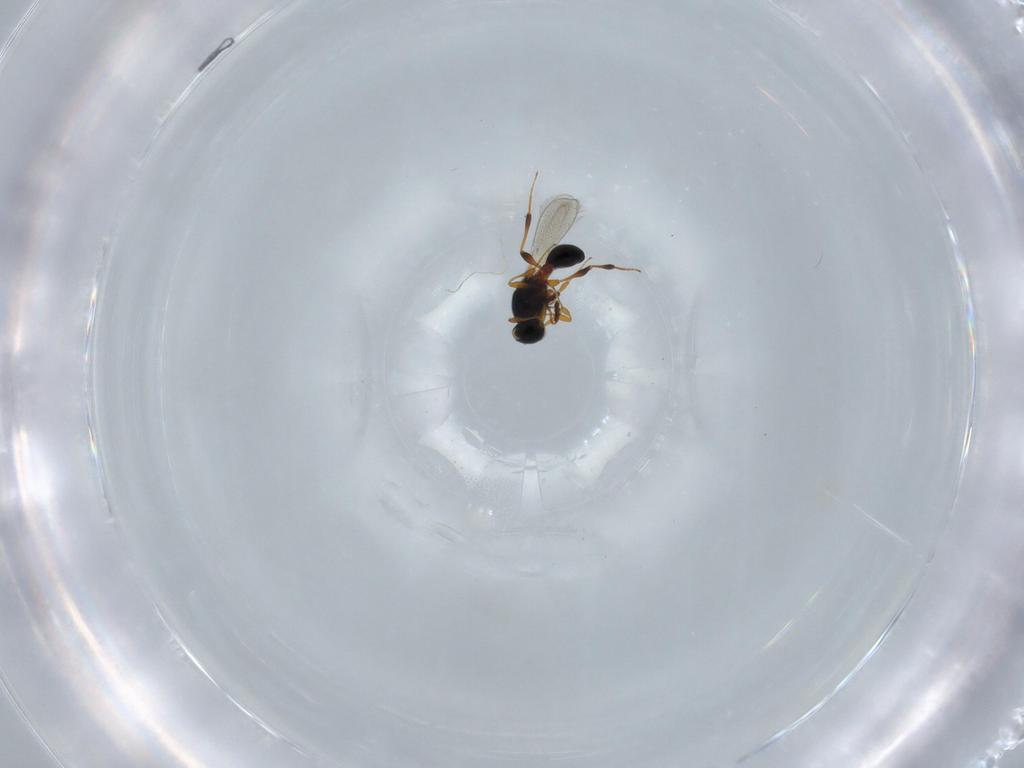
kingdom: Animalia
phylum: Arthropoda
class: Insecta
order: Hymenoptera
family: Platygastridae
